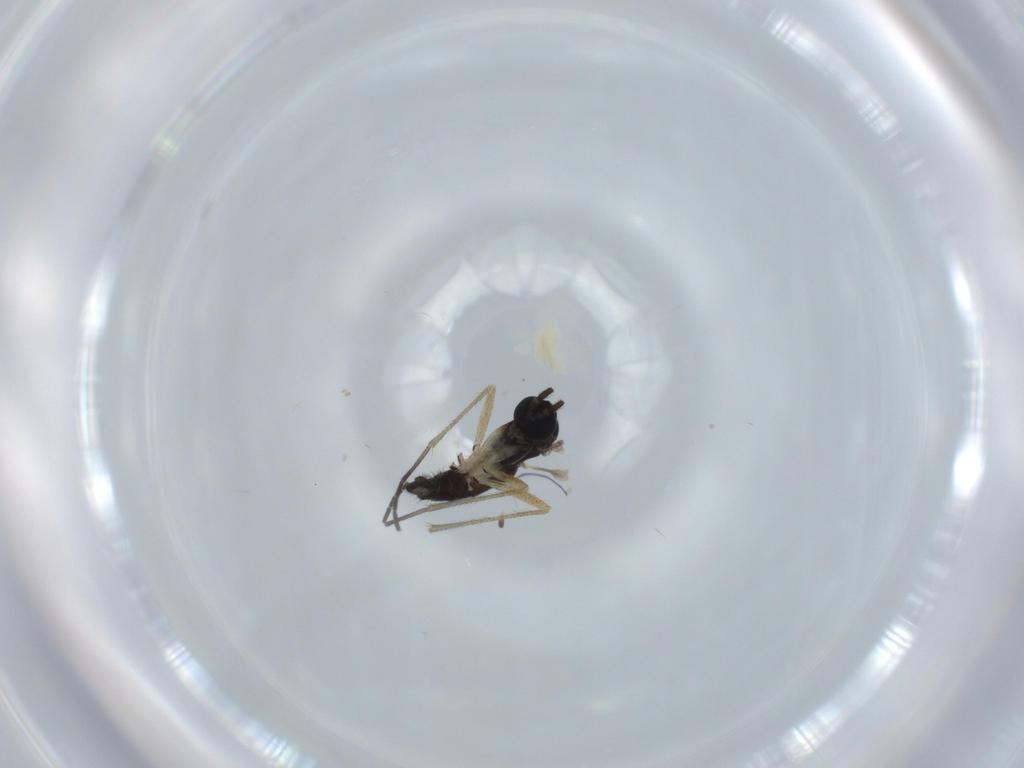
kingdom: Animalia
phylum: Arthropoda
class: Insecta
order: Diptera
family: Sciaridae
